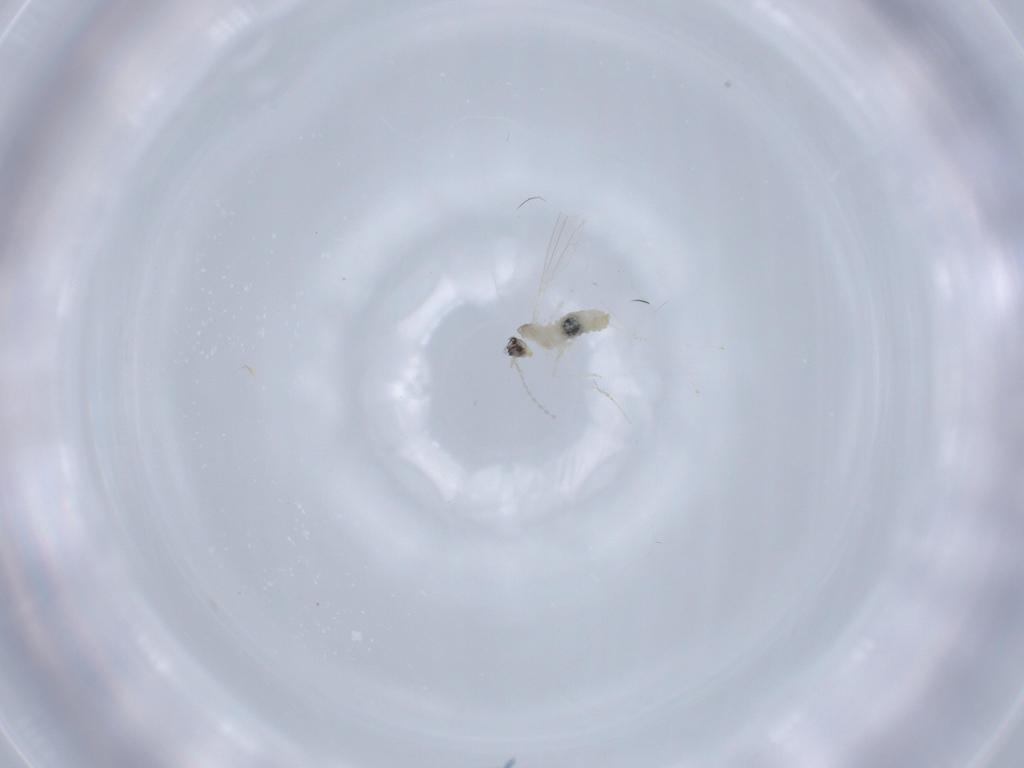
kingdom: Animalia
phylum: Arthropoda
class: Insecta
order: Diptera
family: Cecidomyiidae
